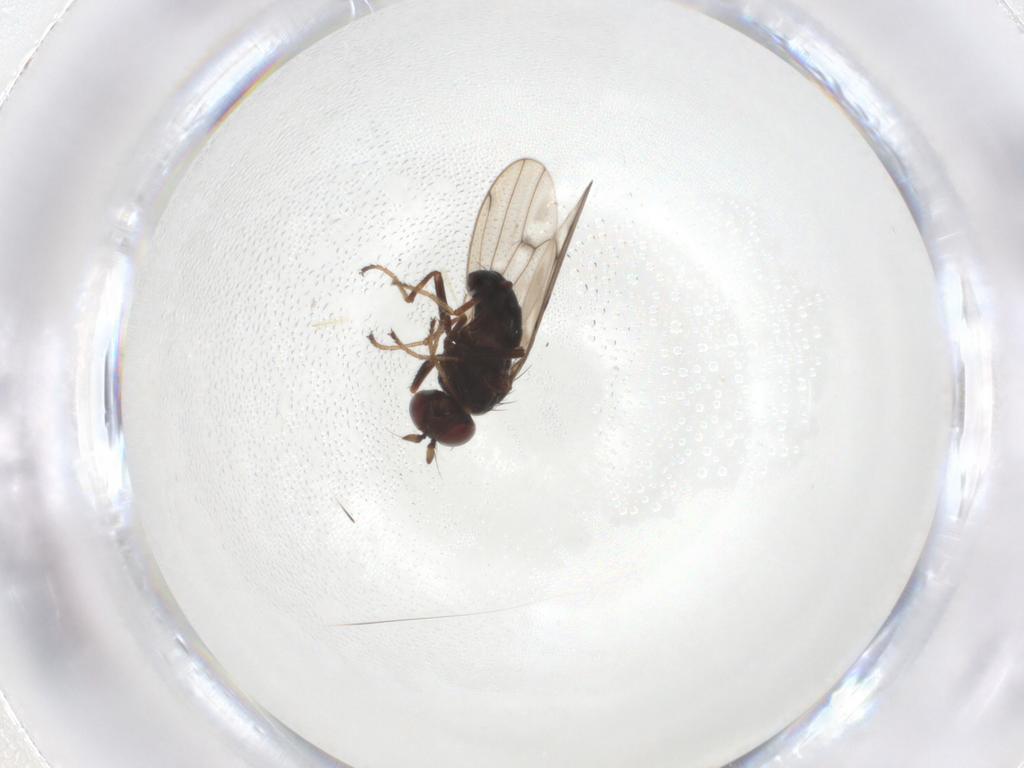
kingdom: Animalia
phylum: Arthropoda
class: Insecta
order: Diptera
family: Ephydridae
